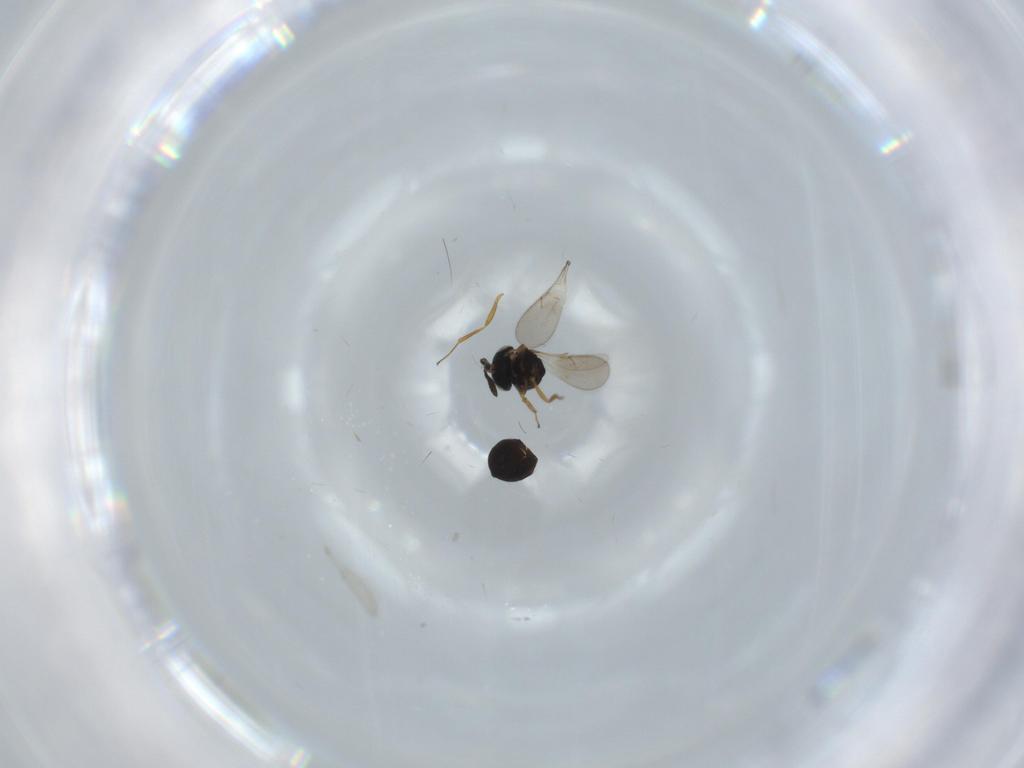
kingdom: Animalia
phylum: Arthropoda
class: Insecta
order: Hymenoptera
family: Scelionidae
